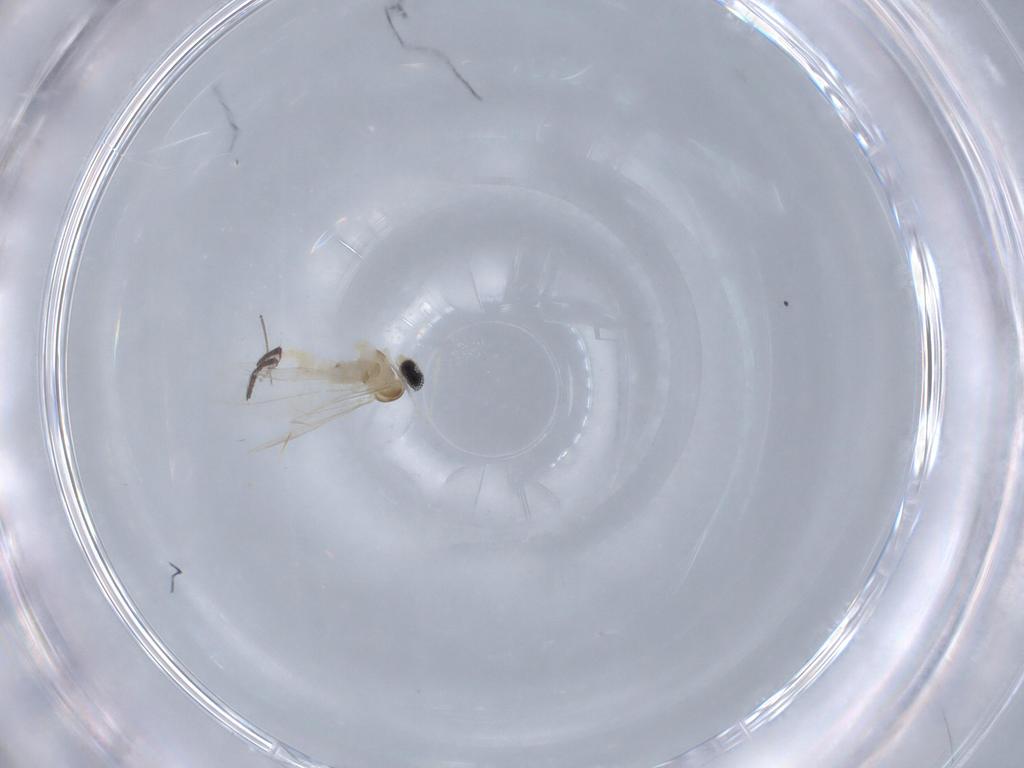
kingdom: Animalia
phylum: Arthropoda
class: Insecta
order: Diptera
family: Cecidomyiidae
